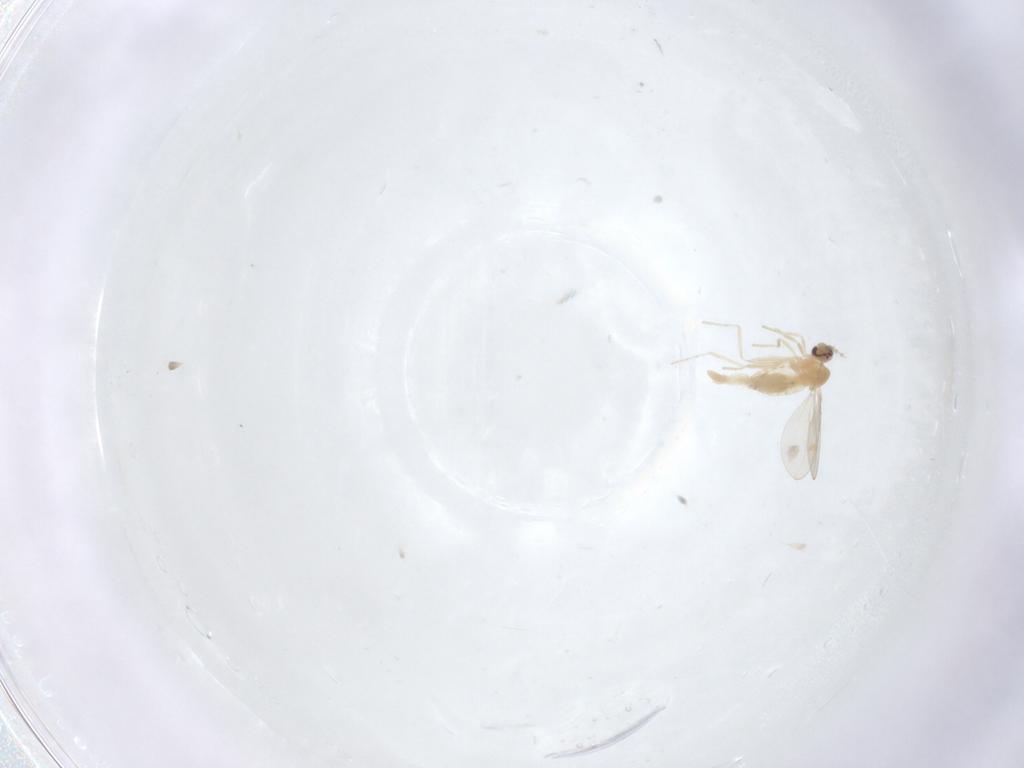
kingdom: Animalia
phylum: Arthropoda
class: Insecta
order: Diptera
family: Cecidomyiidae
